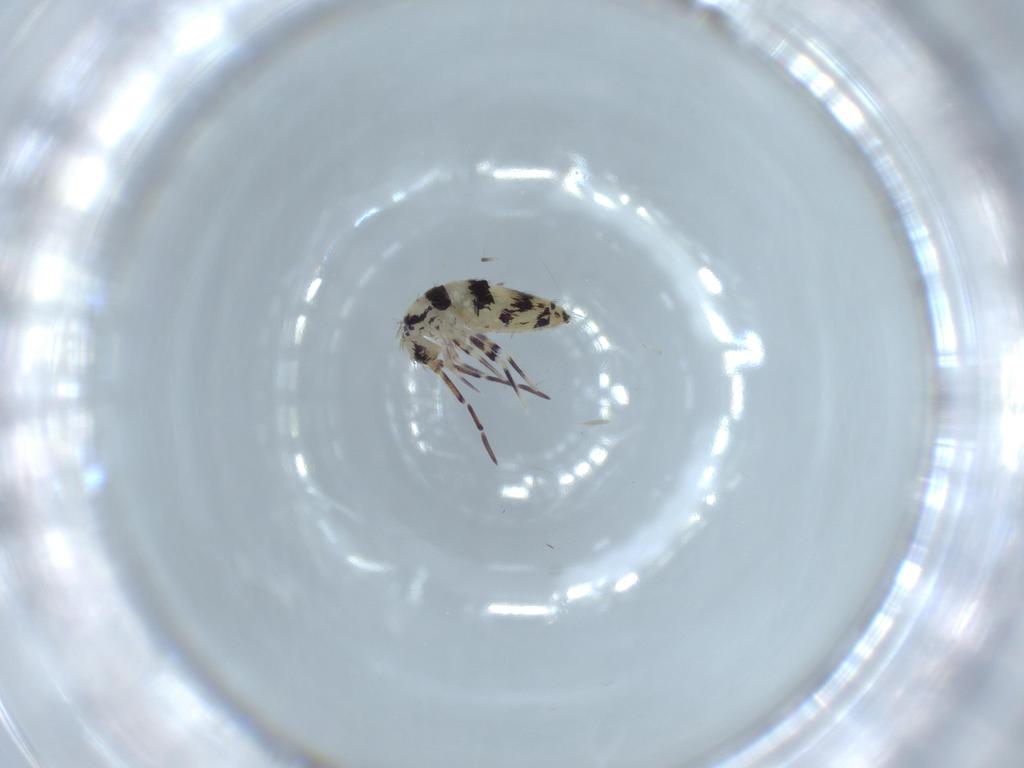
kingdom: Animalia
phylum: Arthropoda
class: Collembola
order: Entomobryomorpha
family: Entomobryidae
